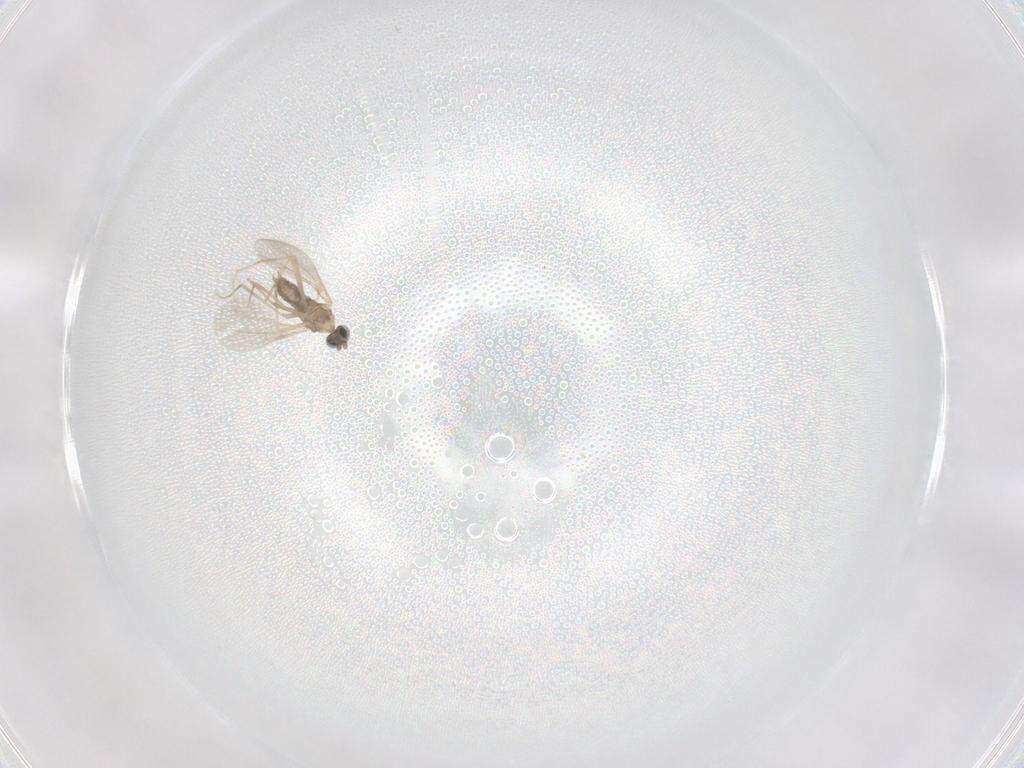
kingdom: Animalia
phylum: Arthropoda
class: Insecta
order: Diptera
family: Cecidomyiidae
